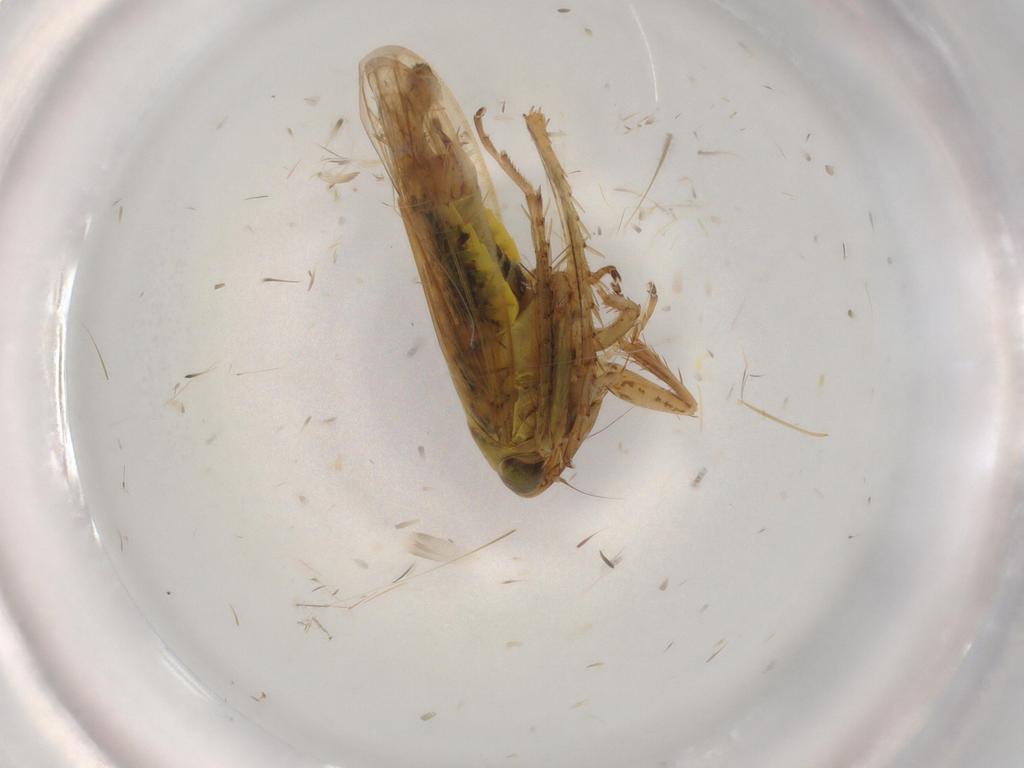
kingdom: Animalia
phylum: Arthropoda
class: Insecta
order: Hemiptera
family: Cicadellidae
